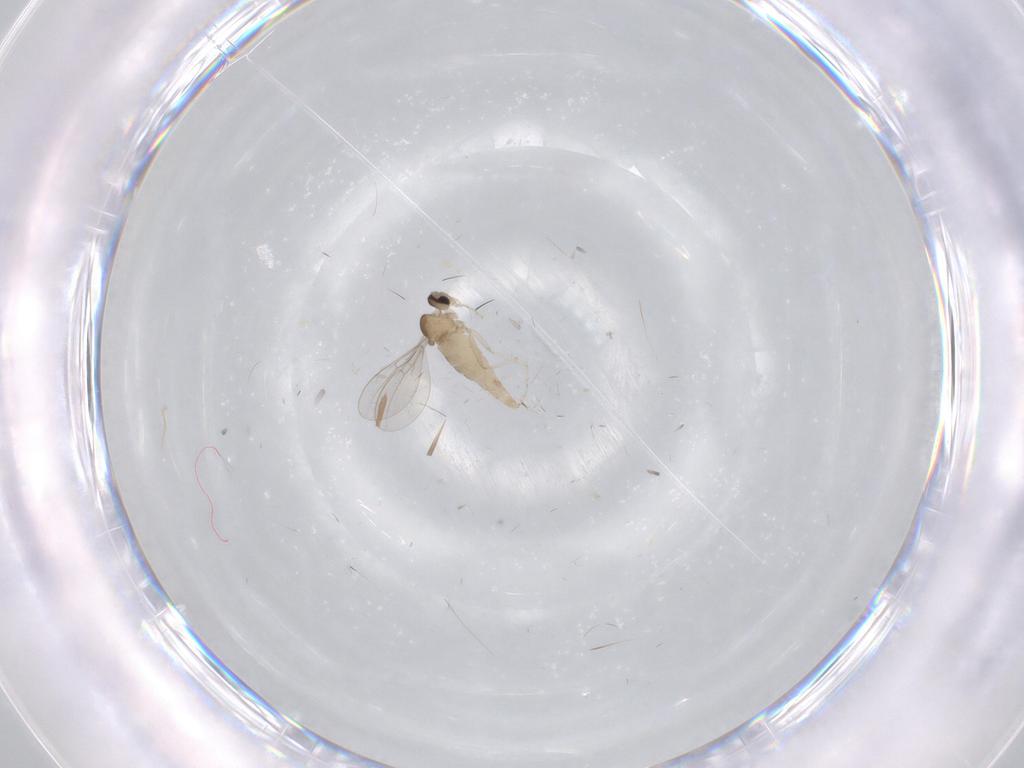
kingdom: Animalia
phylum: Arthropoda
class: Insecta
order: Diptera
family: Cecidomyiidae
